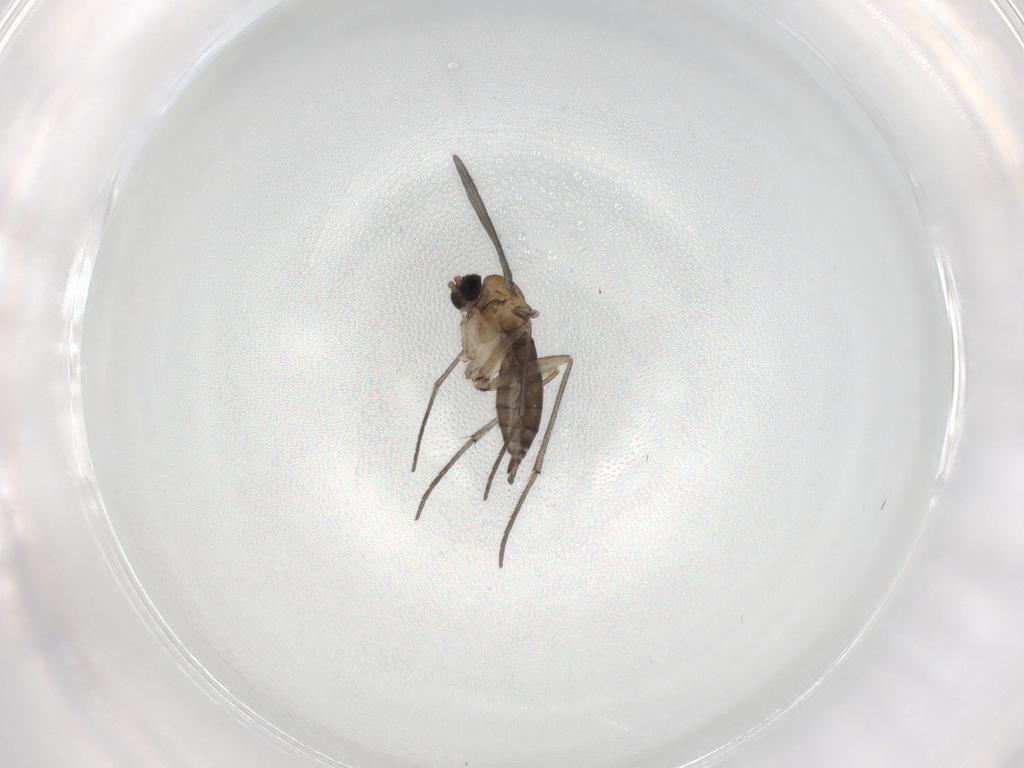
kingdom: Animalia
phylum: Arthropoda
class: Insecta
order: Diptera
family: Sciaridae
